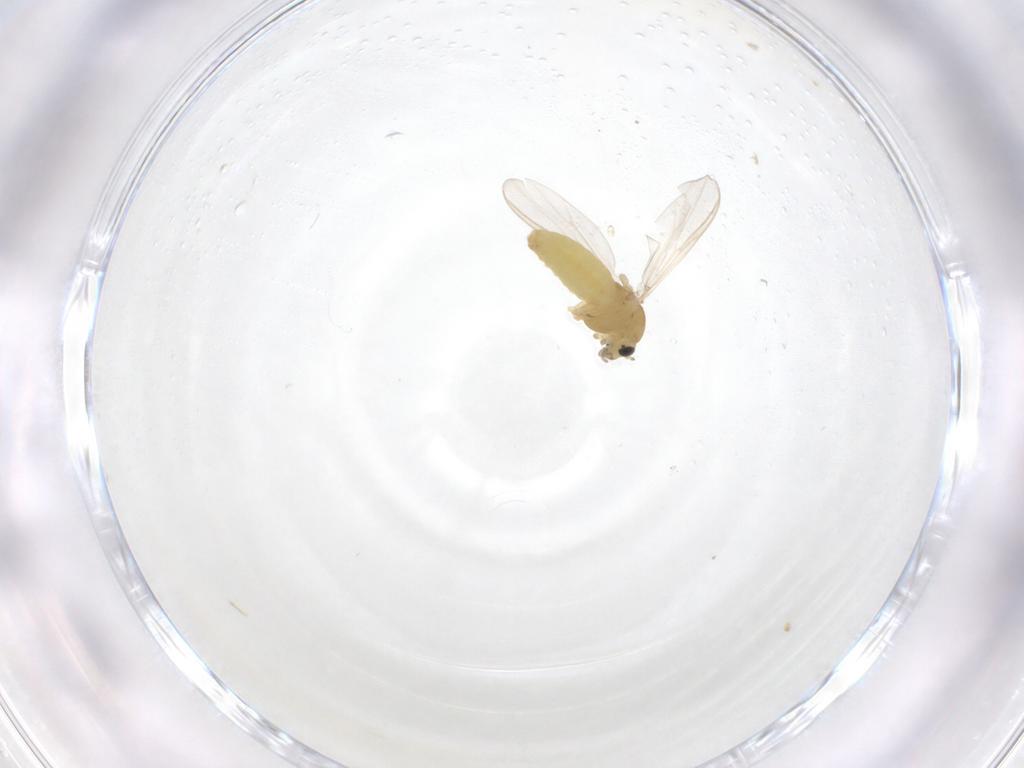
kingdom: Animalia
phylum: Arthropoda
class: Insecta
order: Diptera
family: Chironomidae
